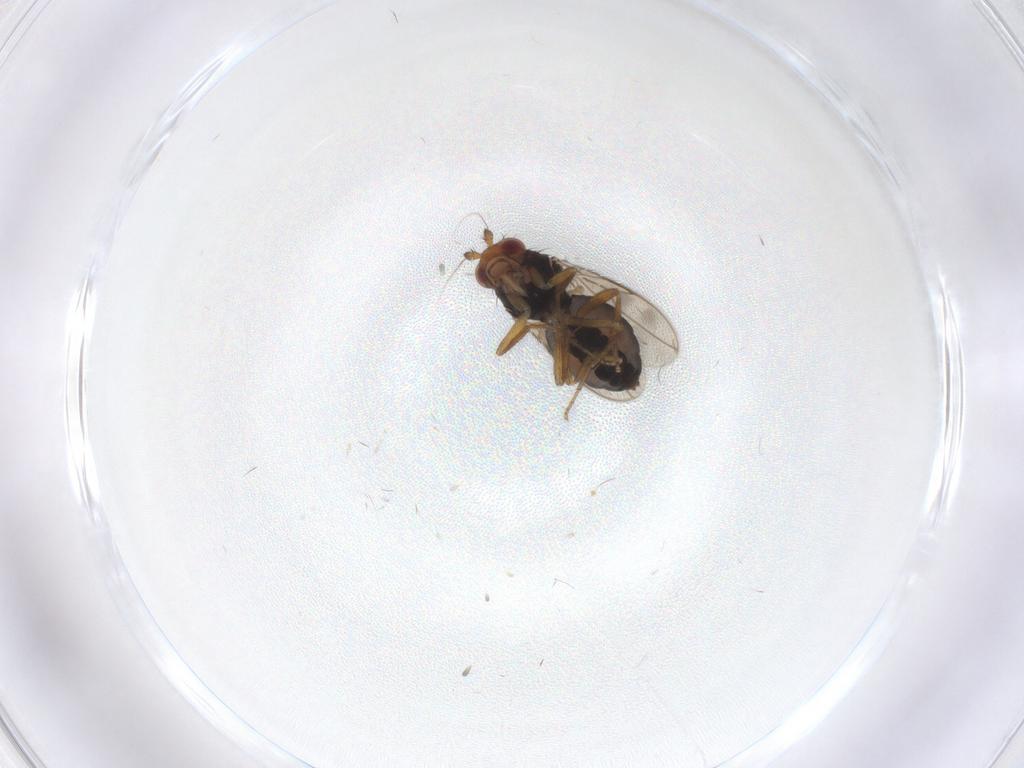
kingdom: Animalia
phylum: Arthropoda
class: Insecta
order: Diptera
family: Sphaeroceridae
